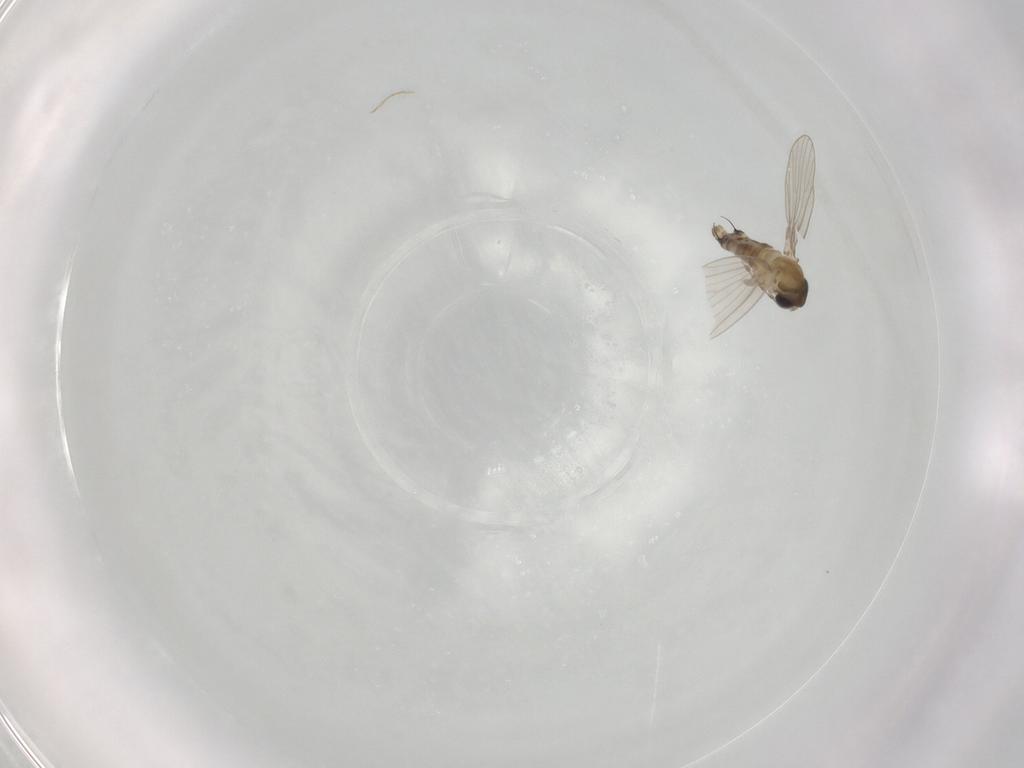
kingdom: Animalia
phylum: Arthropoda
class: Insecta
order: Diptera
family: Psychodidae
